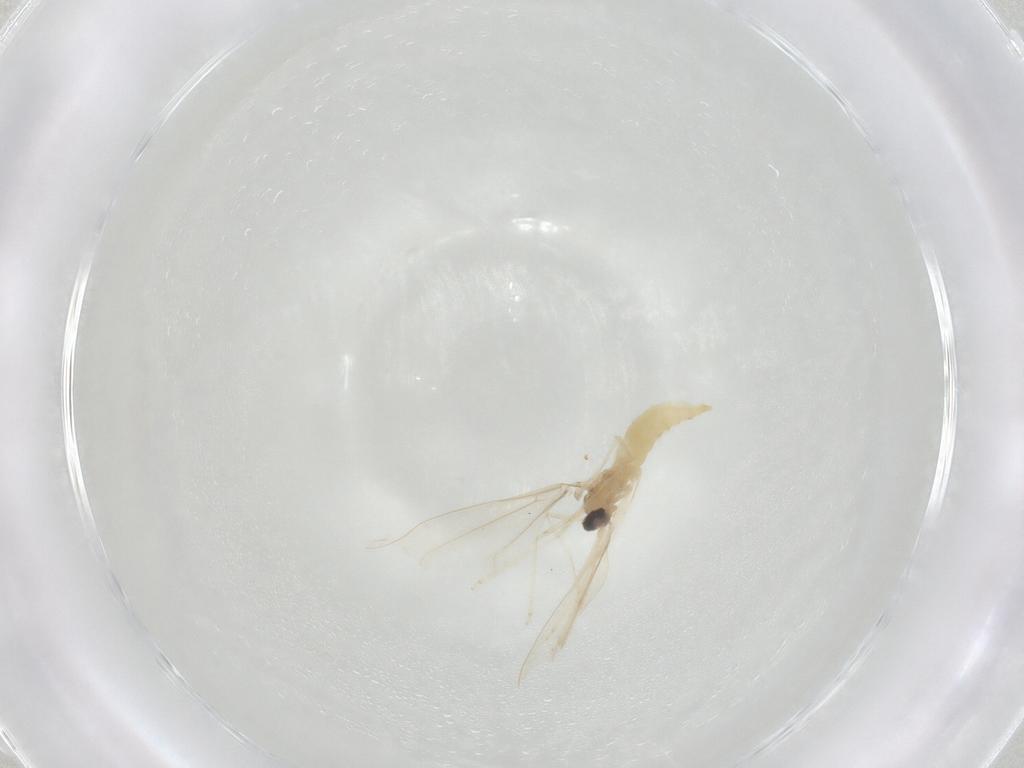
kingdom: Animalia
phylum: Arthropoda
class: Insecta
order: Diptera
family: Cecidomyiidae
